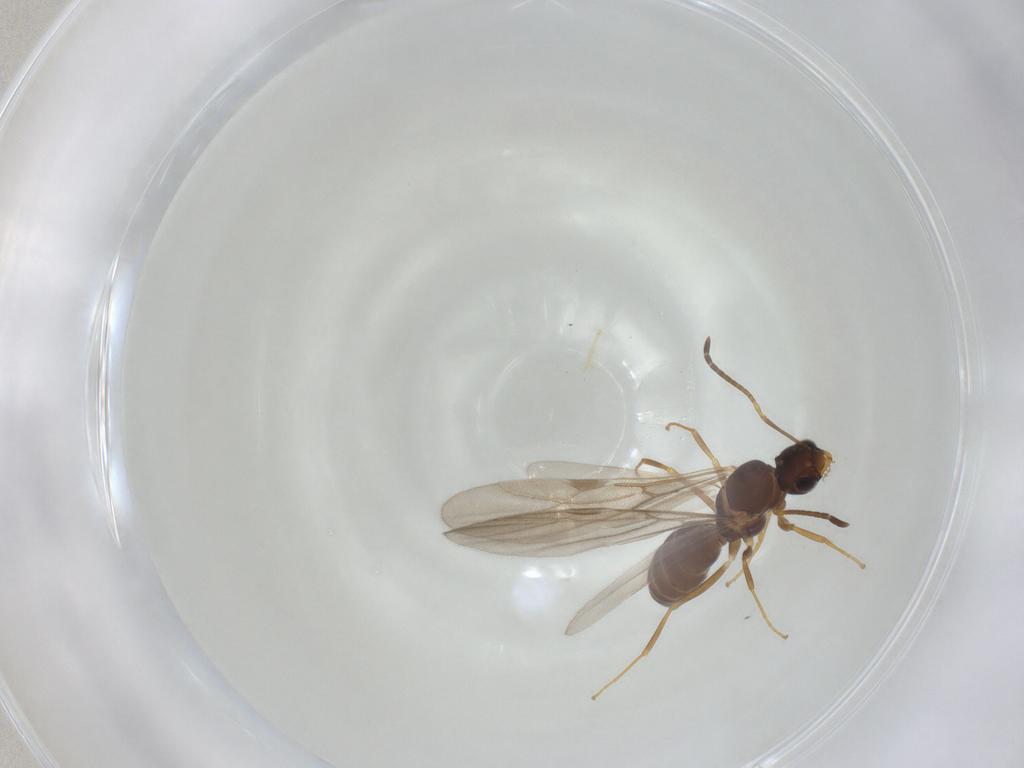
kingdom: Animalia
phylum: Arthropoda
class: Insecta
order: Hymenoptera
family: Formicidae
